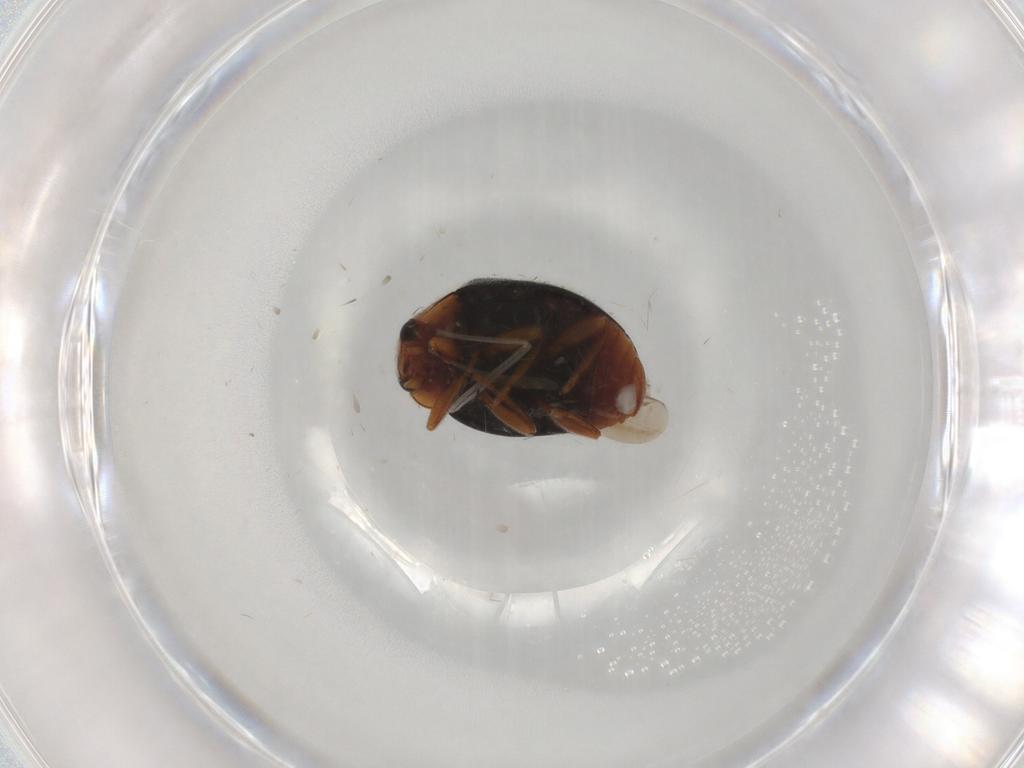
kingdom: Animalia
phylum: Arthropoda
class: Insecta
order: Coleoptera
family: Coccinellidae
